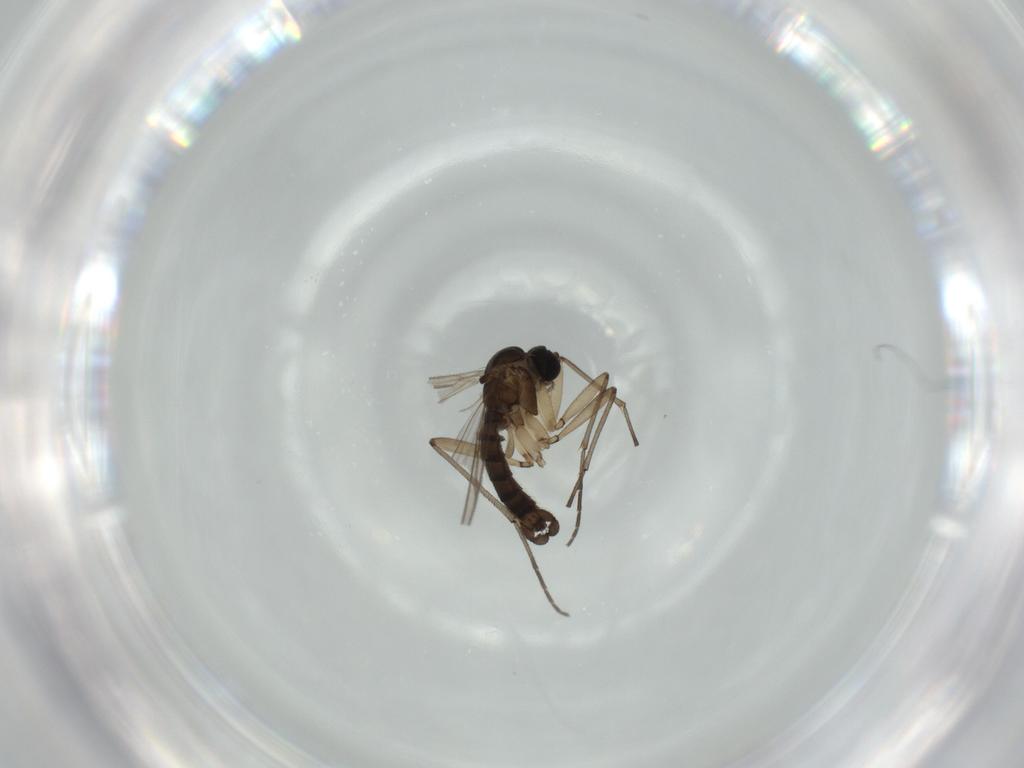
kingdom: Animalia
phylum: Arthropoda
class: Insecta
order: Diptera
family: Phoridae
